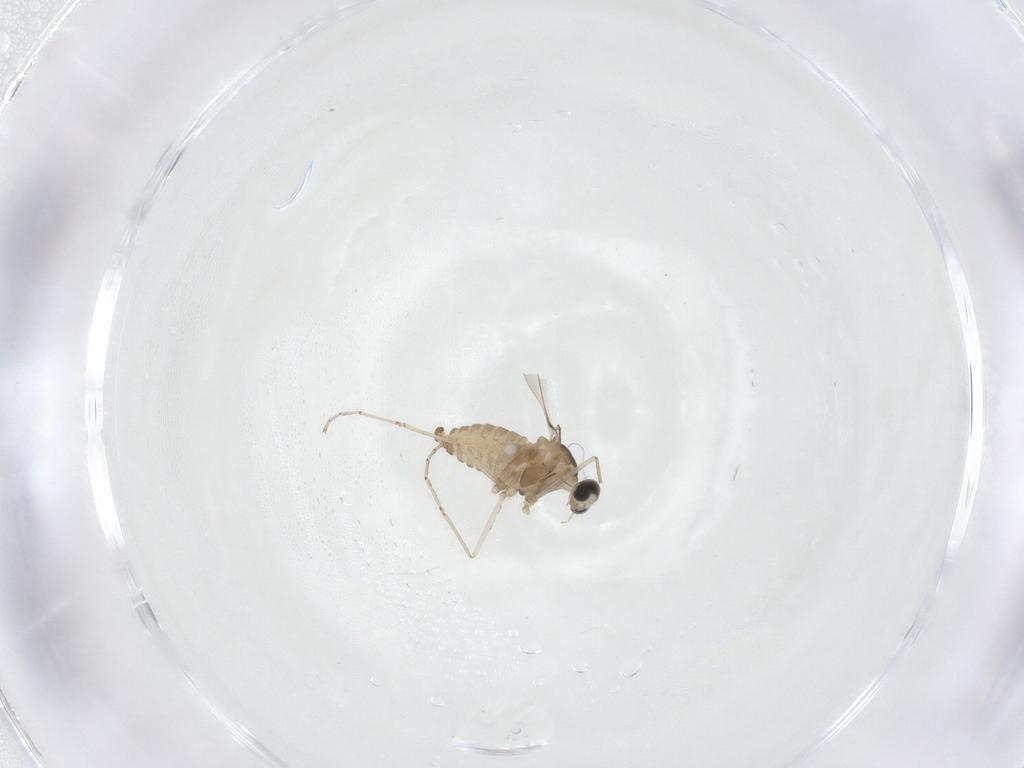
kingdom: Animalia
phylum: Arthropoda
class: Insecta
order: Diptera
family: Cecidomyiidae
